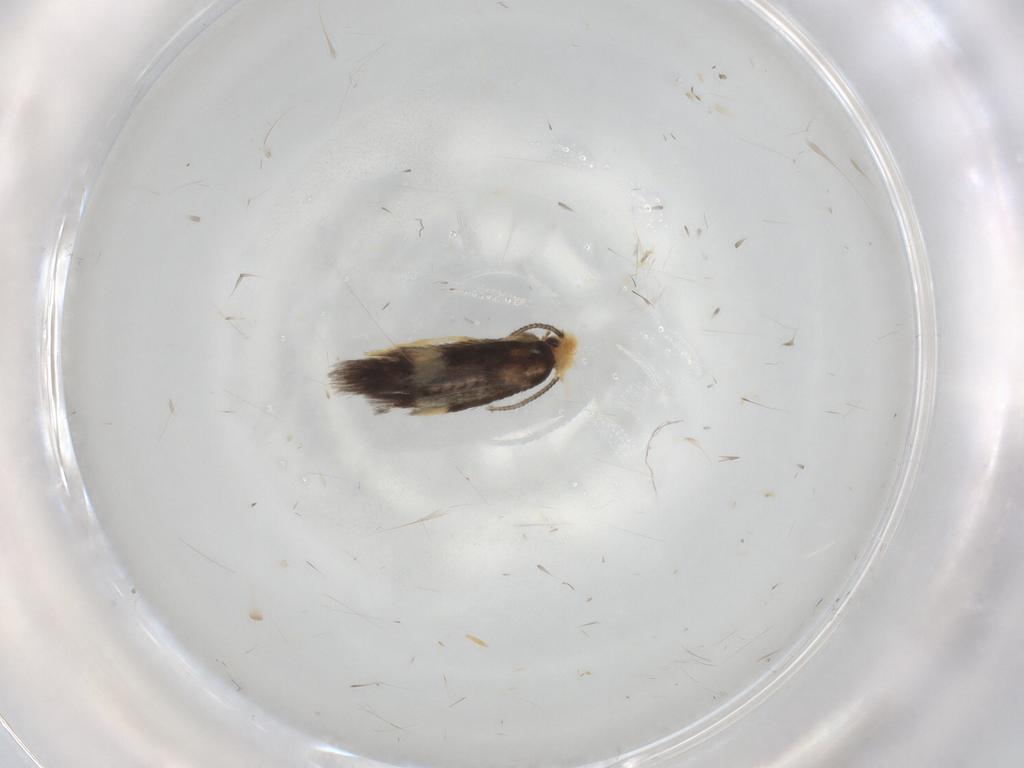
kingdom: Animalia
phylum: Arthropoda
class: Insecta
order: Lepidoptera
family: Nepticulidae
